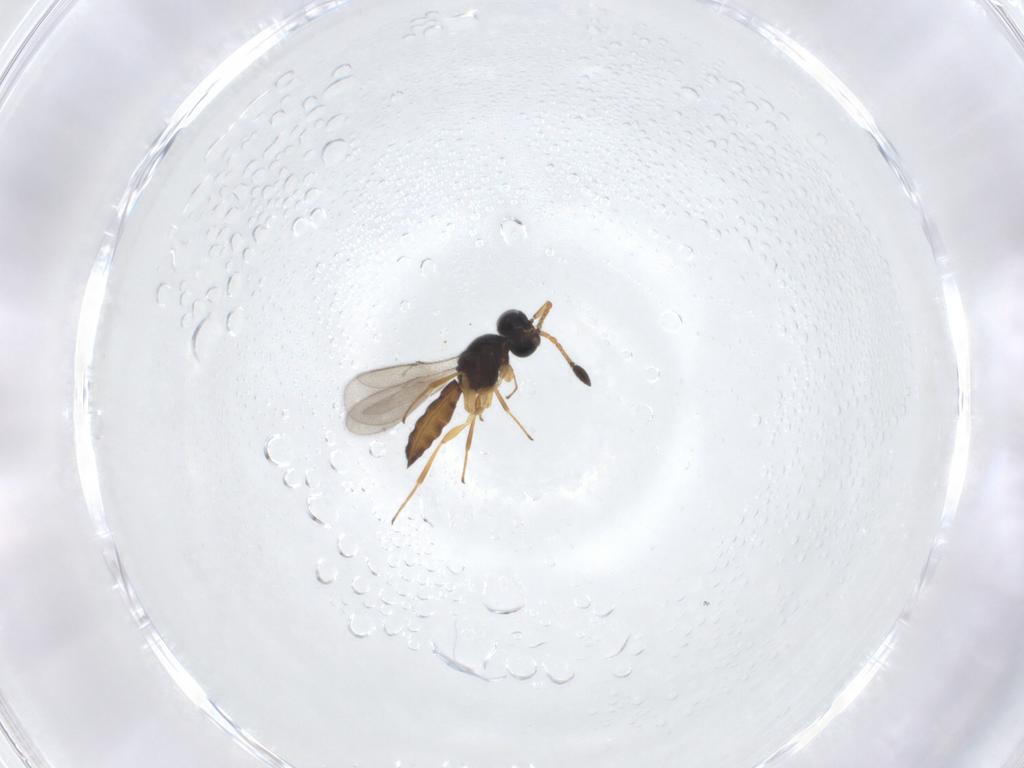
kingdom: Animalia
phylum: Arthropoda
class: Insecta
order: Hymenoptera
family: Scelionidae
